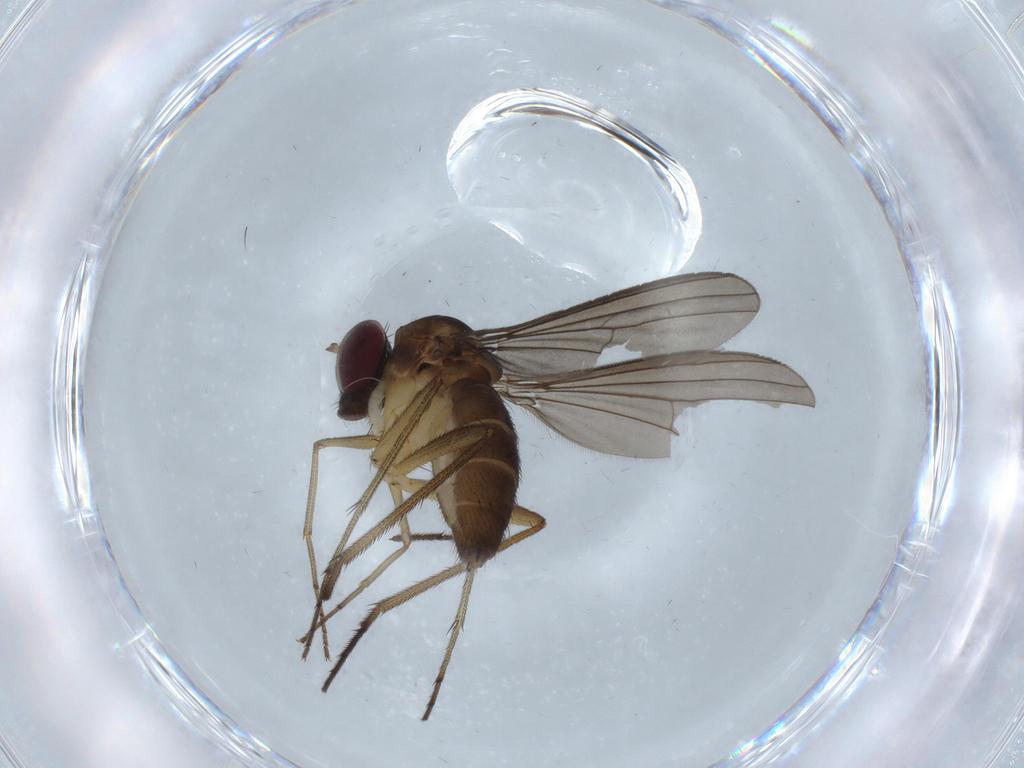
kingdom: Animalia
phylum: Arthropoda
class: Insecta
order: Diptera
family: Dolichopodidae
